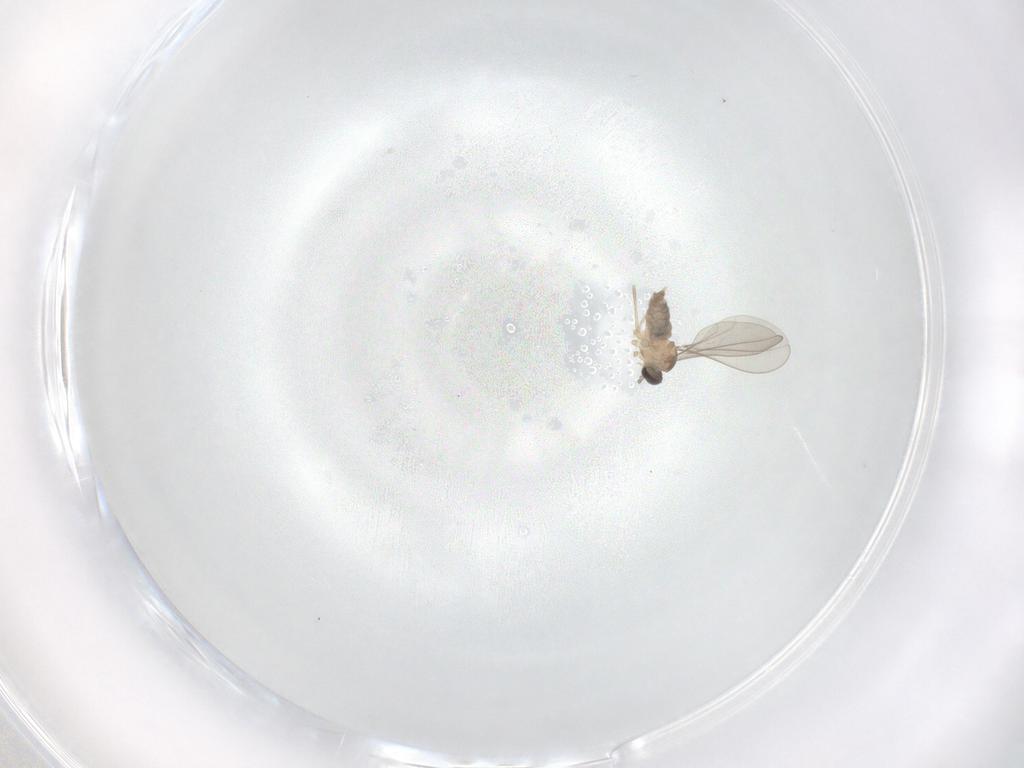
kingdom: Animalia
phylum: Arthropoda
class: Insecta
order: Diptera
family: Cecidomyiidae
